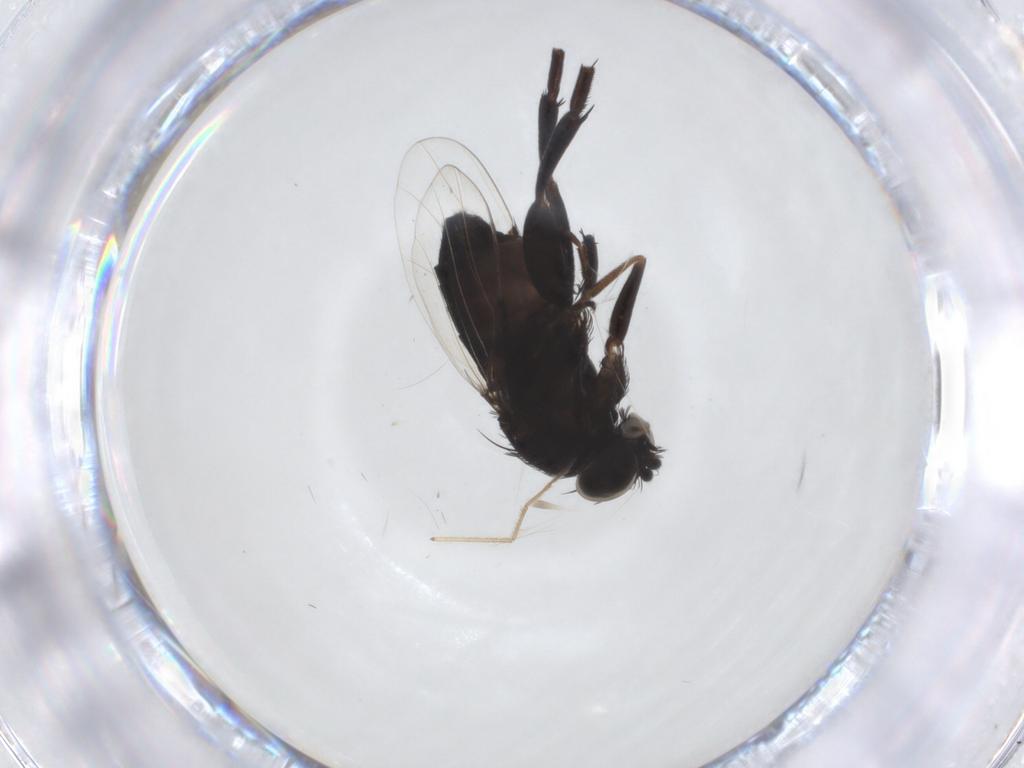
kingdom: Animalia
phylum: Arthropoda
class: Insecta
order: Diptera
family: Phoridae
